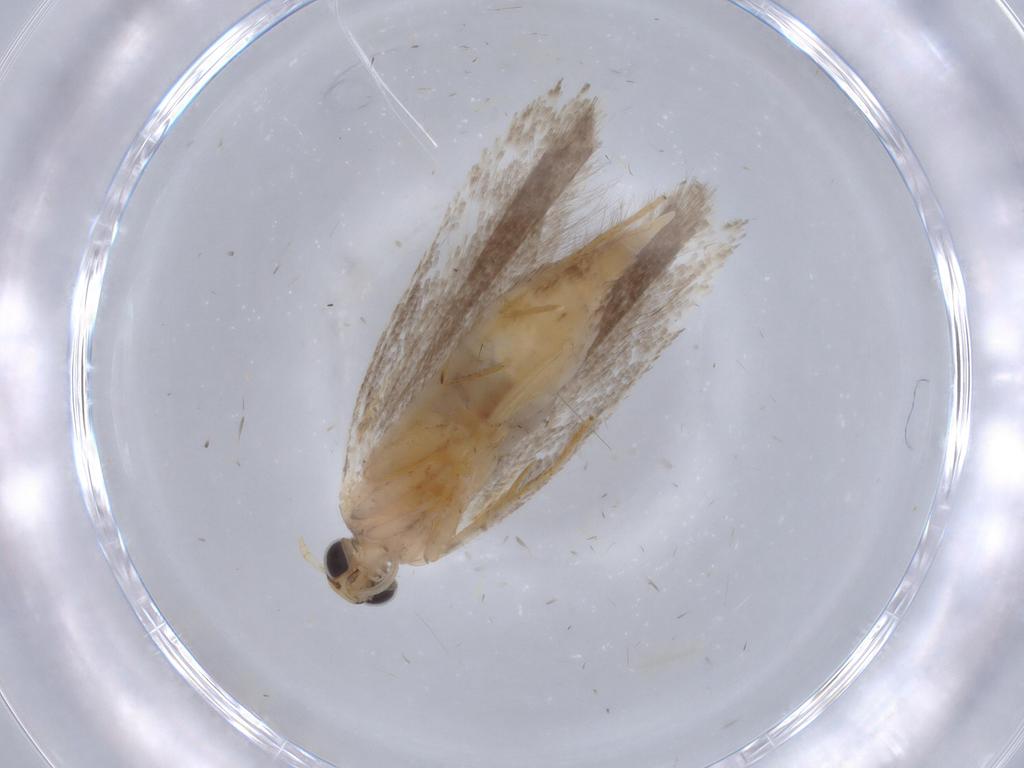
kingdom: Animalia
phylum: Arthropoda
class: Insecta
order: Lepidoptera
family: Gelechiidae
